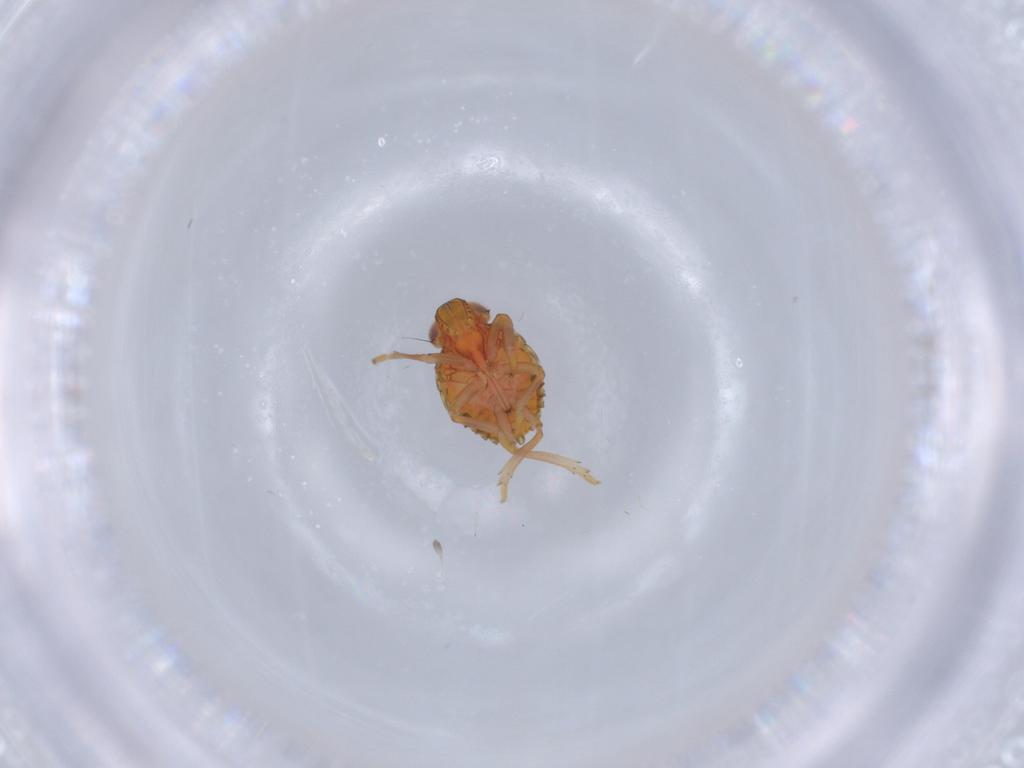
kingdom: Animalia
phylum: Arthropoda
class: Insecta
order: Hemiptera
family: Issidae
